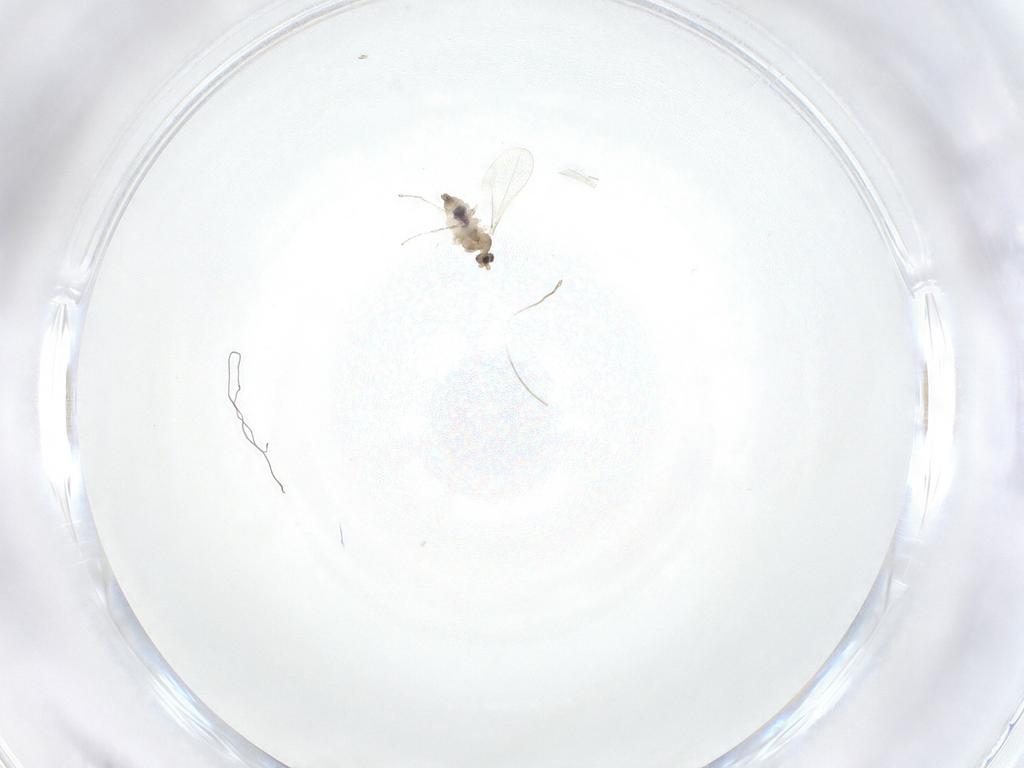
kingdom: Animalia
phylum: Arthropoda
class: Insecta
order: Diptera
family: Cecidomyiidae
